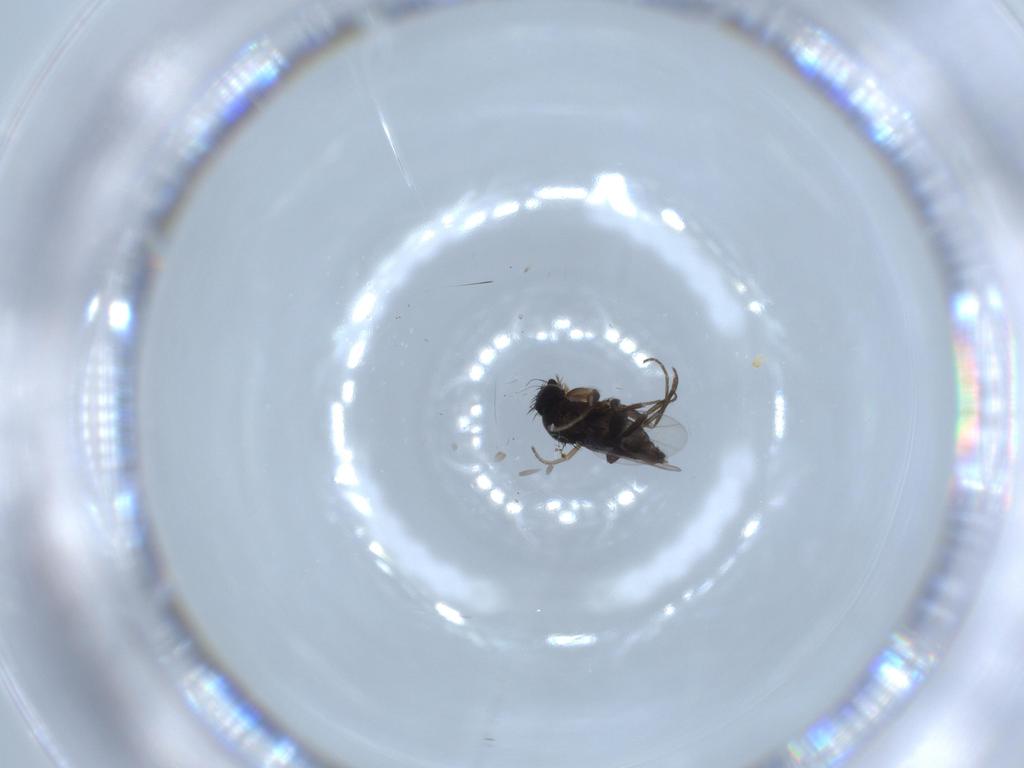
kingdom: Animalia
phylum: Arthropoda
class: Insecta
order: Diptera
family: Phoridae
